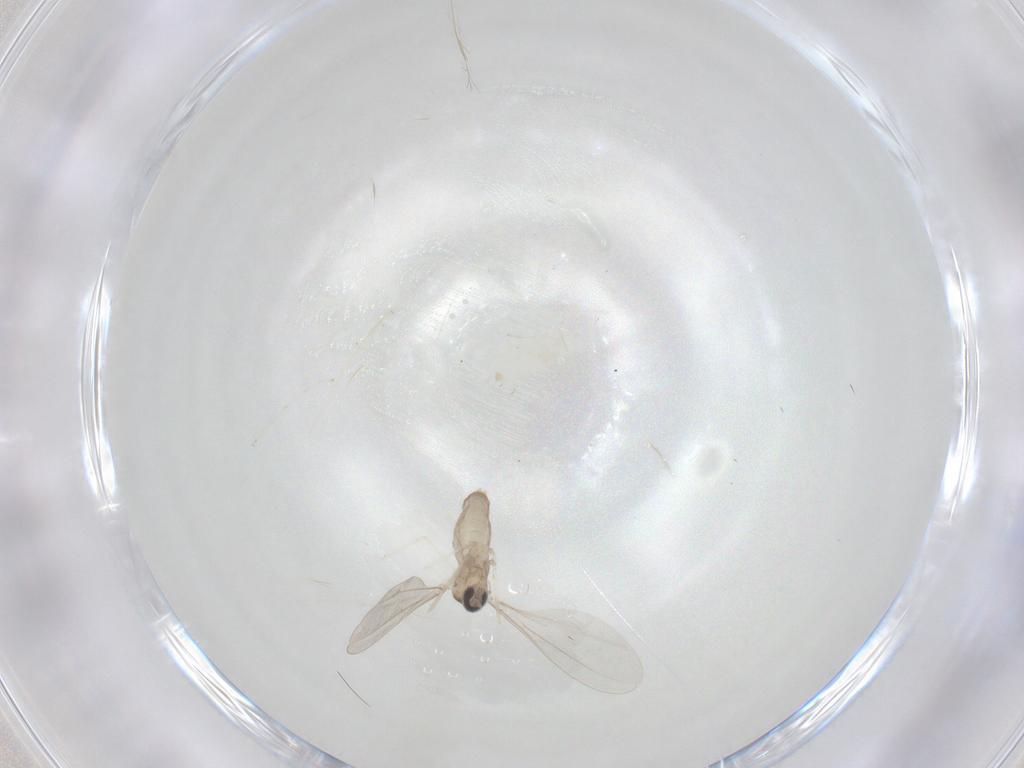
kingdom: Animalia
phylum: Arthropoda
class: Insecta
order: Diptera
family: Cecidomyiidae
